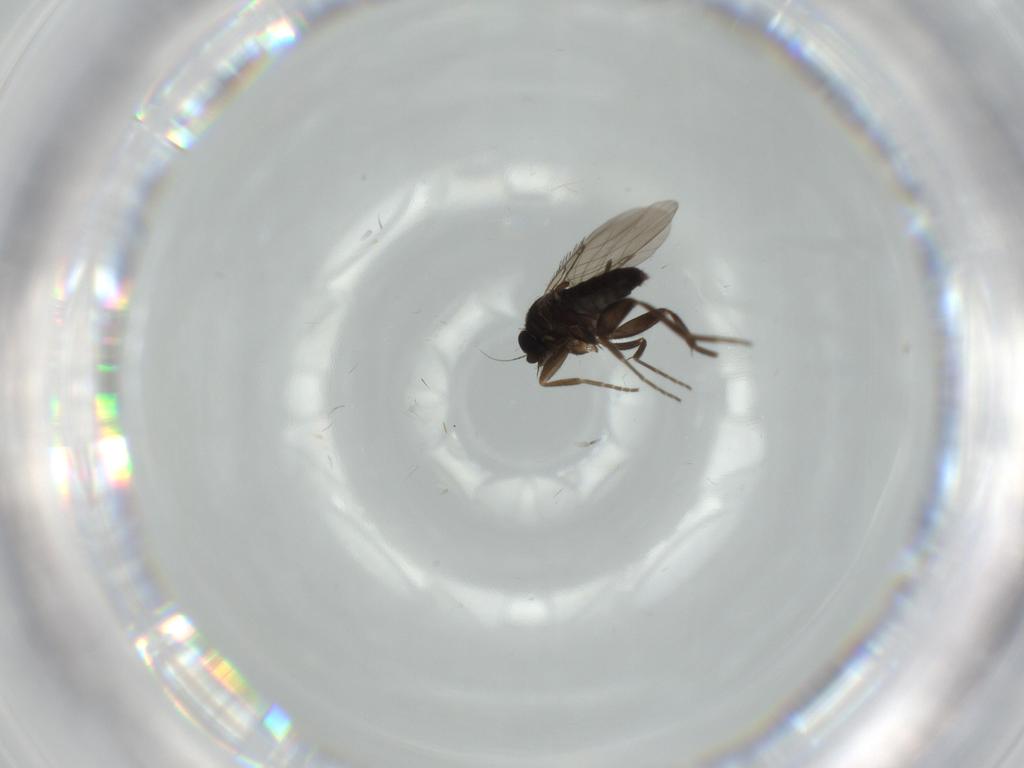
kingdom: Animalia
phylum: Arthropoda
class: Insecta
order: Diptera
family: Phoridae
